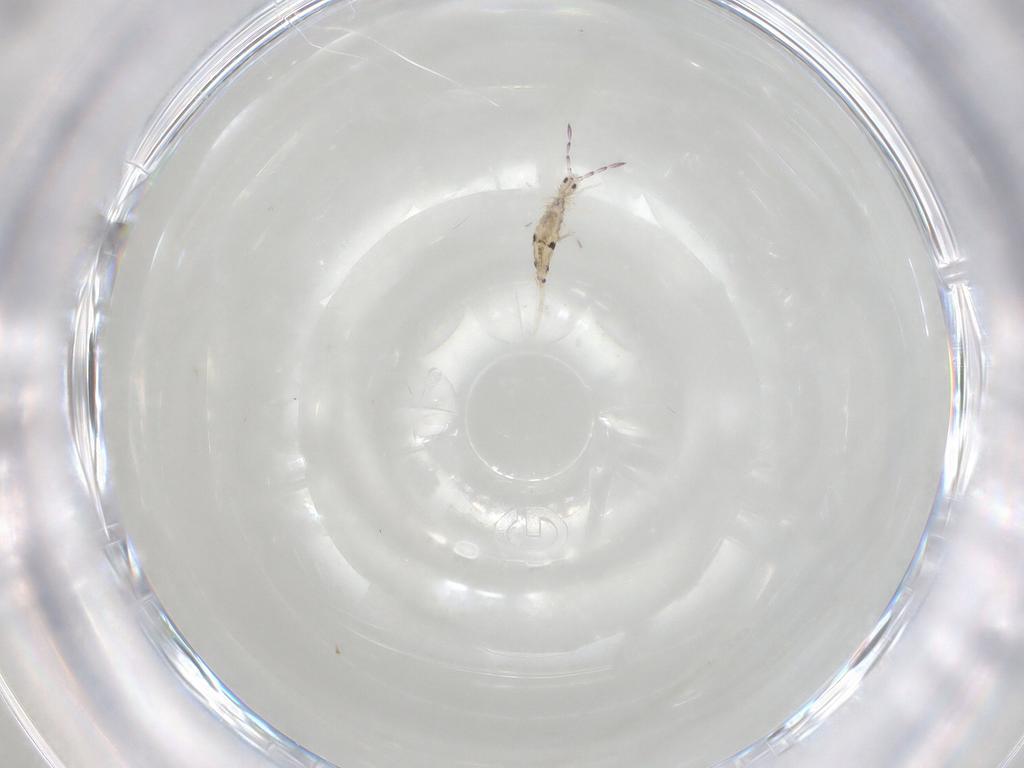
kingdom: Animalia
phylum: Arthropoda
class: Collembola
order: Entomobryomorpha
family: Entomobryidae
